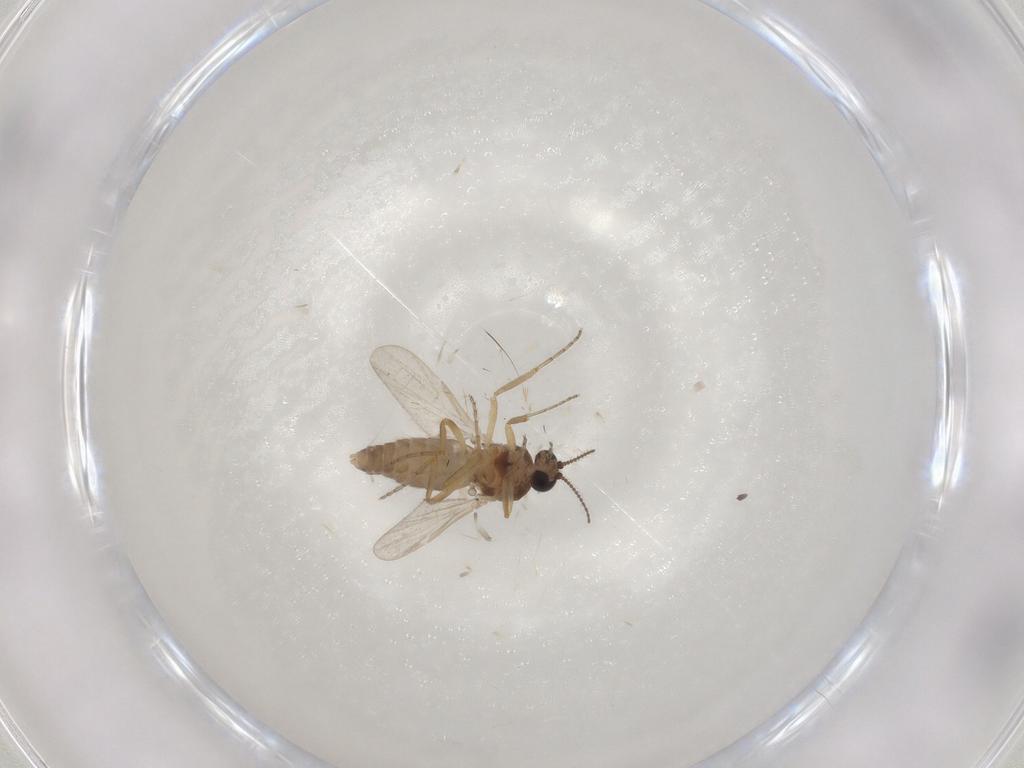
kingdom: Animalia
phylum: Arthropoda
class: Insecta
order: Diptera
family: Ceratopogonidae
